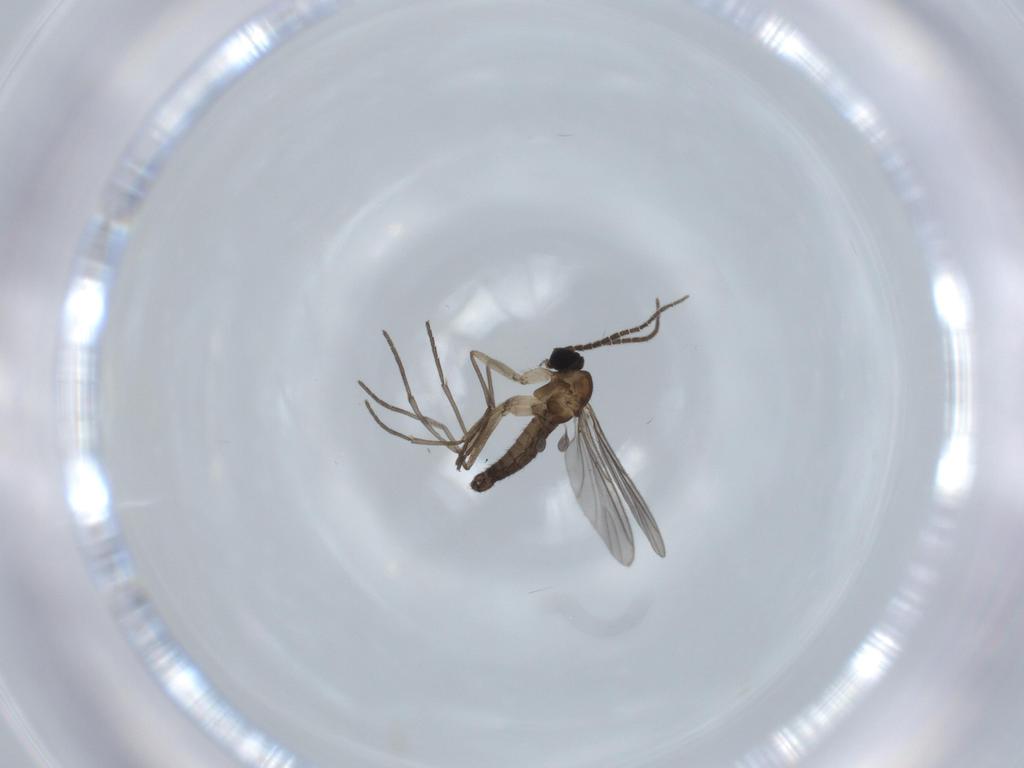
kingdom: Animalia
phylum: Arthropoda
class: Insecta
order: Diptera
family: Sciaridae
